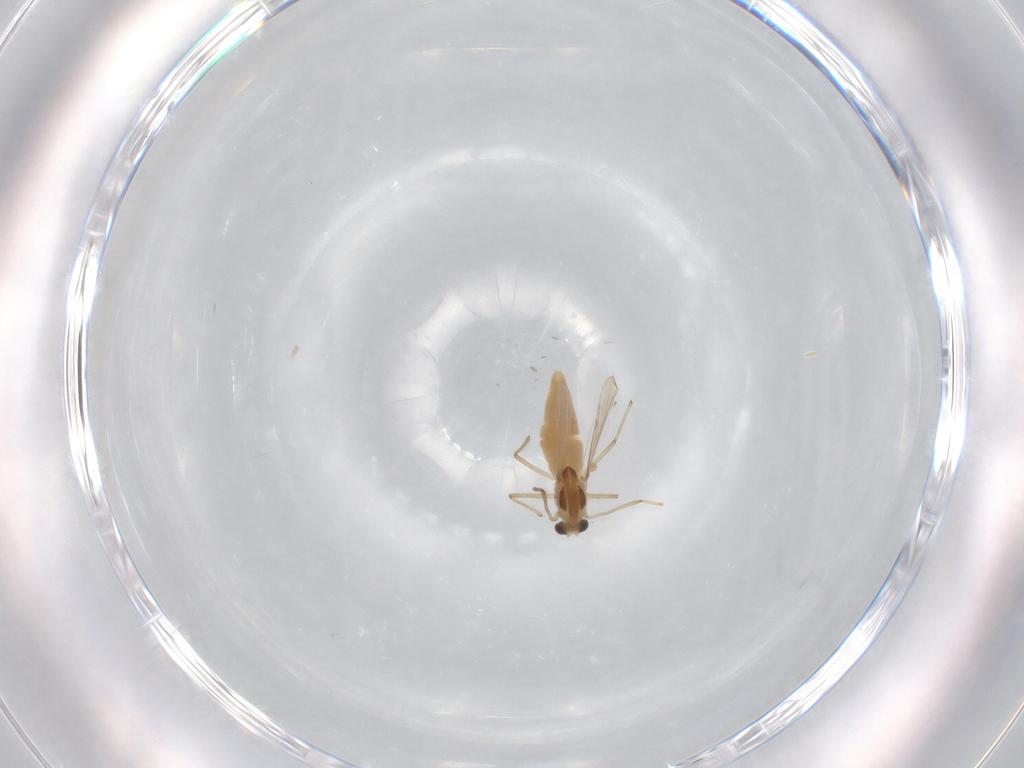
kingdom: Animalia
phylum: Arthropoda
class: Insecta
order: Diptera
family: Chironomidae
